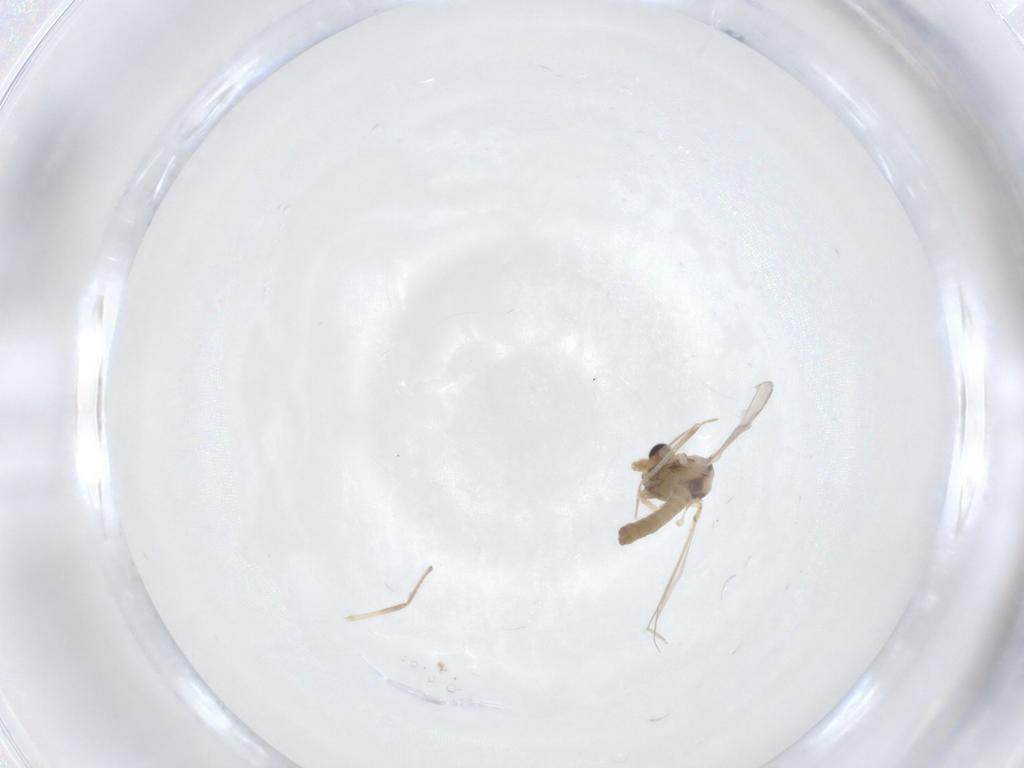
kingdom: Animalia
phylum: Arthropoda
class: Insecta
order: Diptera
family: Chironomidae
